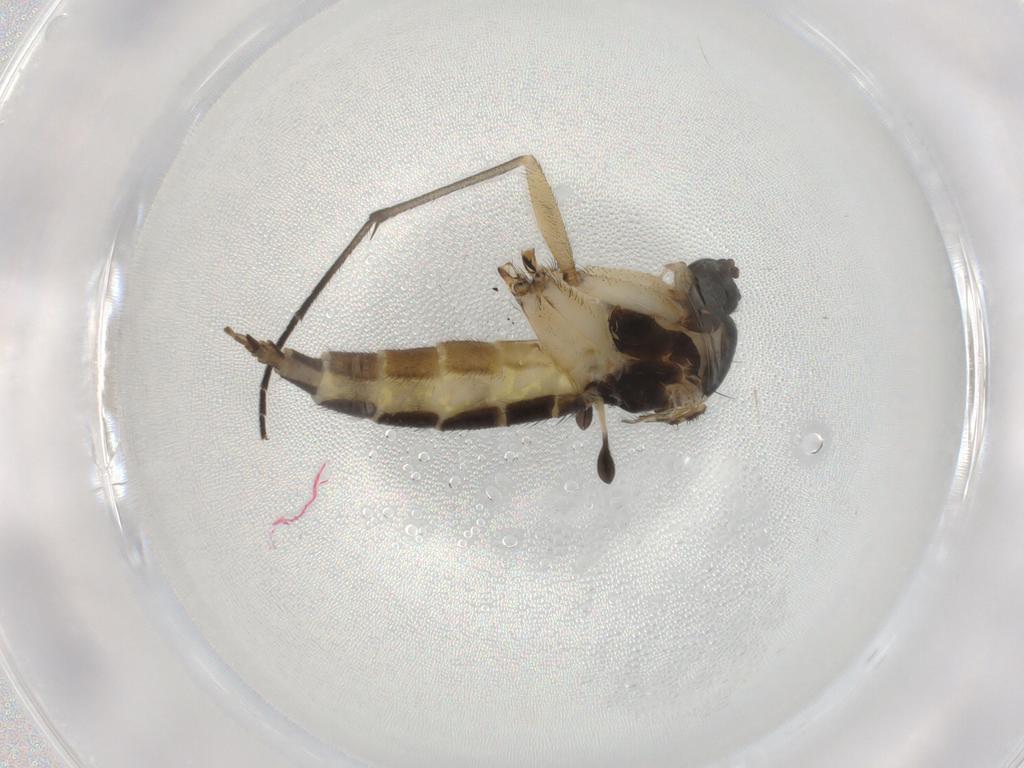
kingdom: Animalia
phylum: Arthropoda
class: Insecta
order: Diptera
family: Sciaridae
